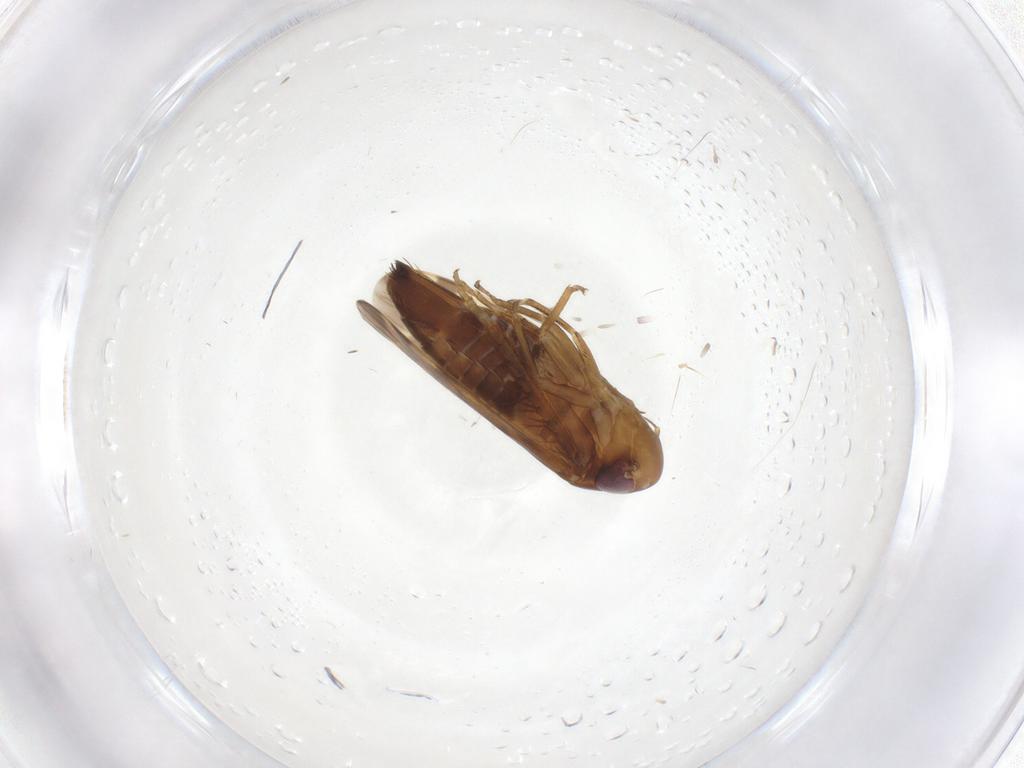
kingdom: Animalia
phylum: Arthropoda
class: Insecta
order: Hemiptera
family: Cicadellidae
